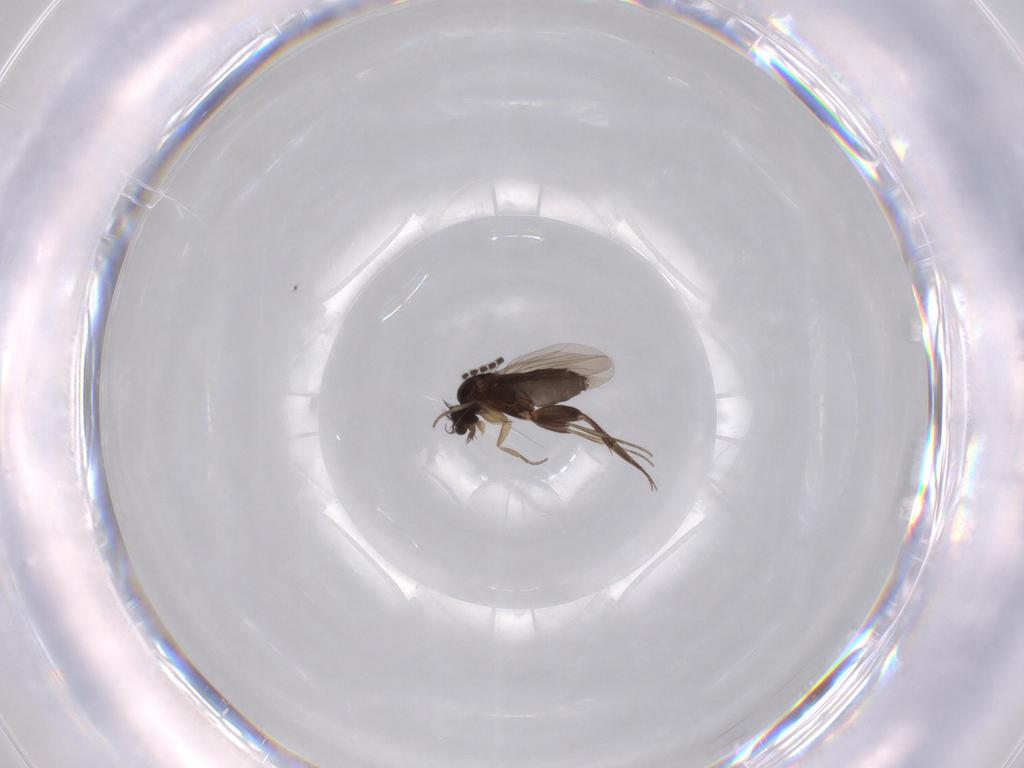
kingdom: Animalia
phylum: Arthropoda
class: Insecta
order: Diptera
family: Phoridae
